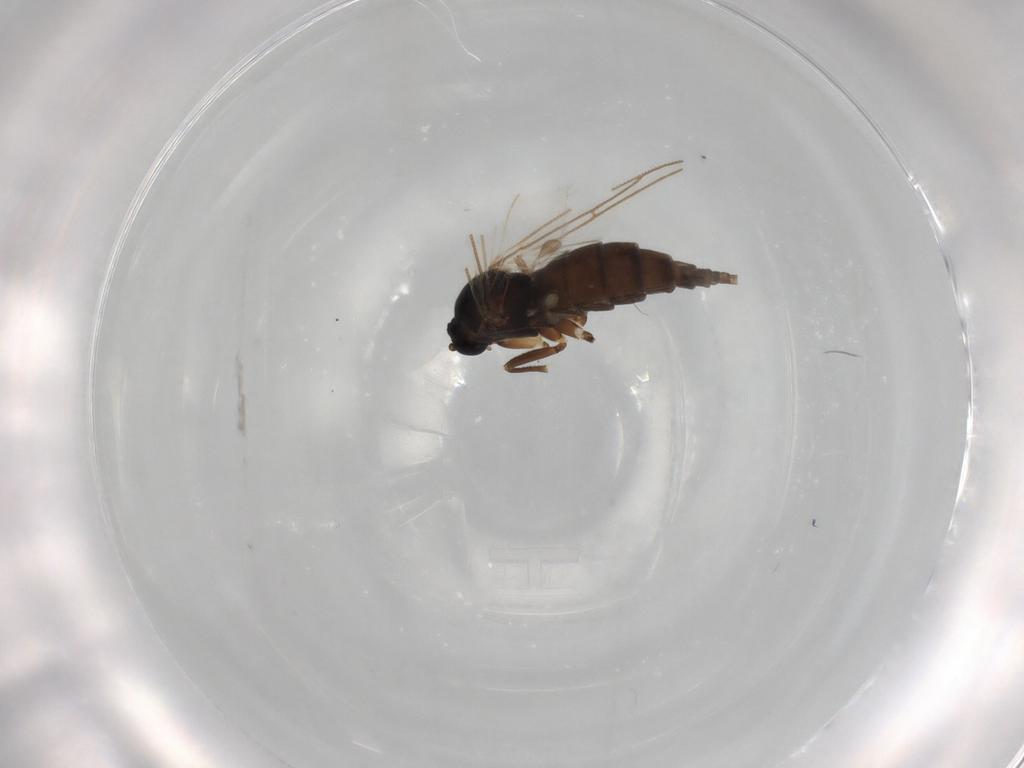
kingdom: Animalia
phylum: Arthropoda
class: Insecta
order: Diptera
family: Sciaridae
